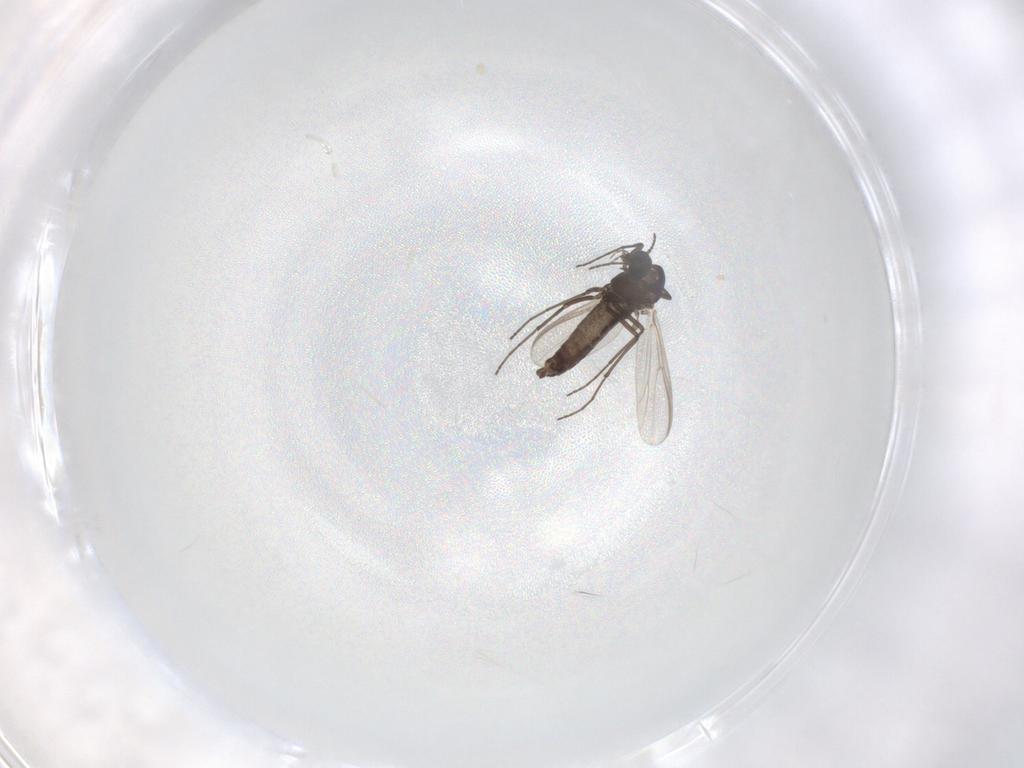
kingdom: Animalia
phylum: Arthropoda
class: Insecta
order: Diptera
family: Chironomidae
